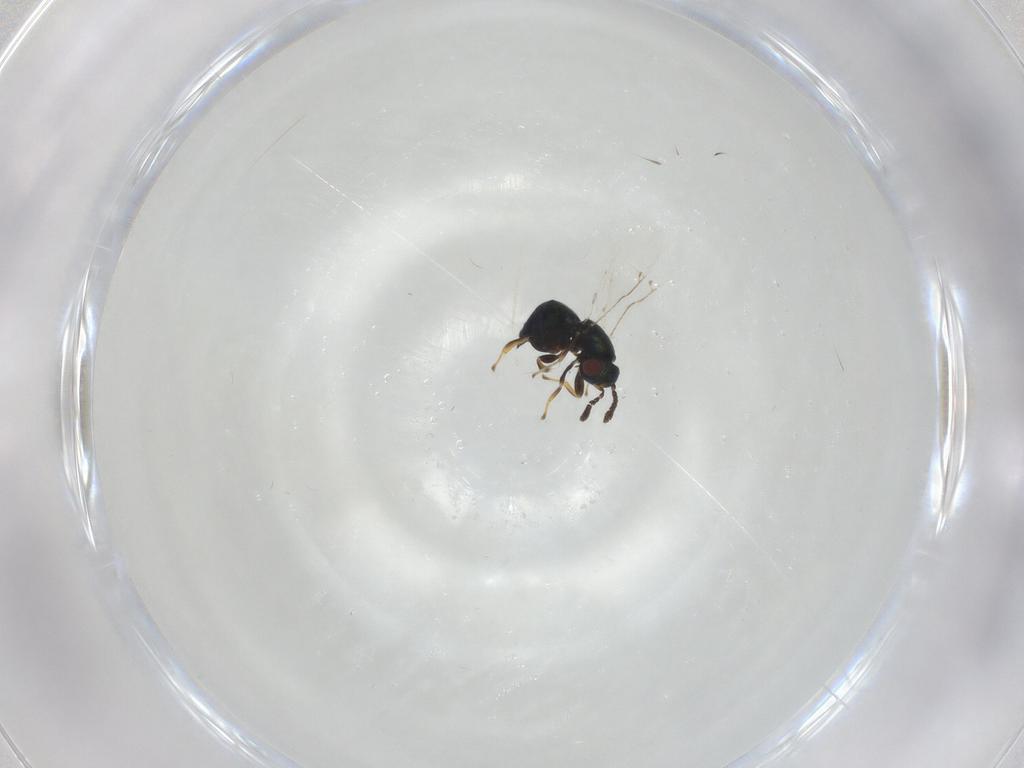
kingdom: Animalia
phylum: Arthropoda
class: Insecta
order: Hymenoptera
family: Pteromalidae
